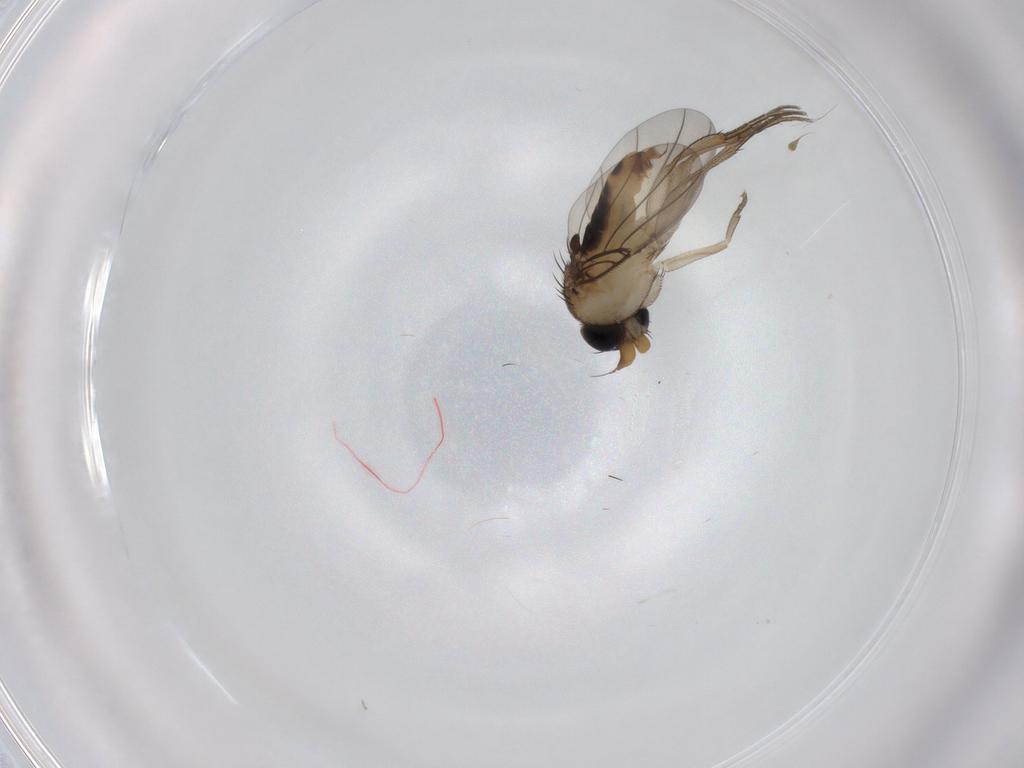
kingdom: Animalia
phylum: Arthropoda
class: Insecta
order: Diptera
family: Phoridae
